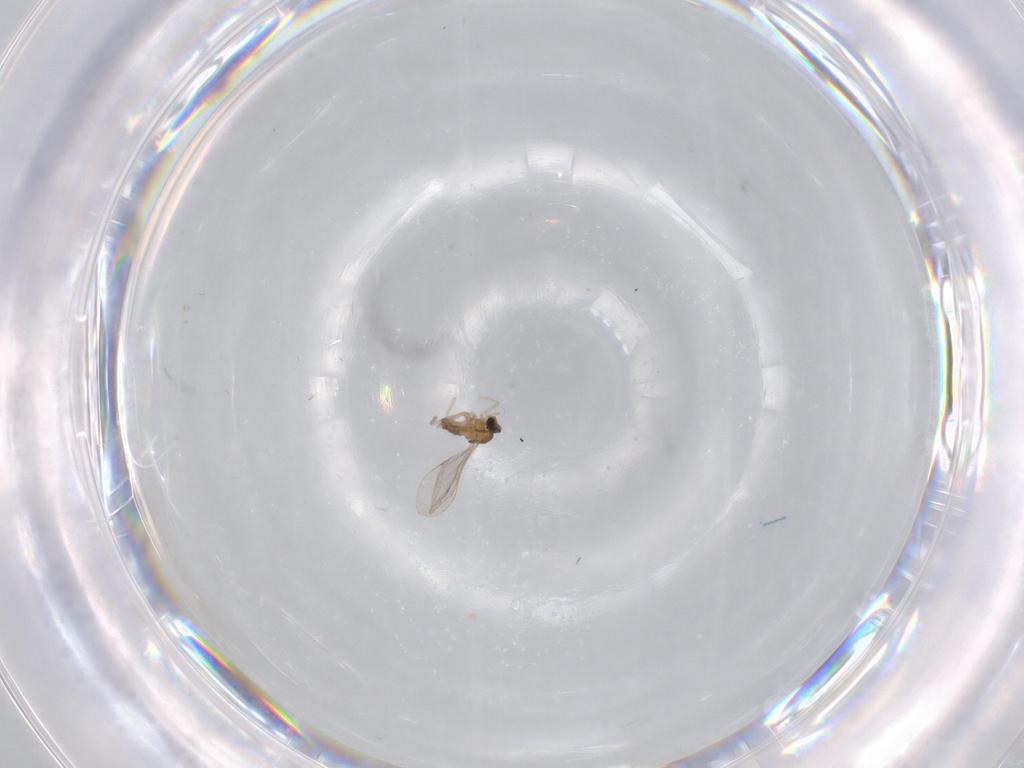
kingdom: Animalia
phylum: Arthropoda
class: Insecta
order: Diptera
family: Cecidomyiidae
